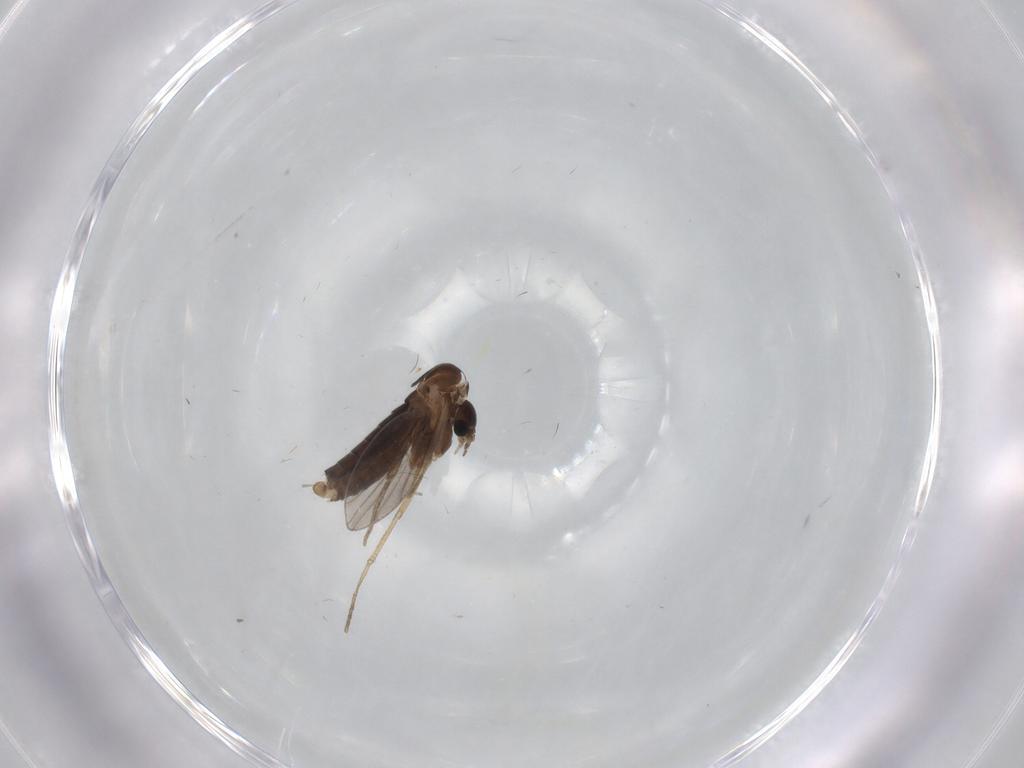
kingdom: Animalia
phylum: Arthropoda
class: Insecta
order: Diptera
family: Psychodidae
